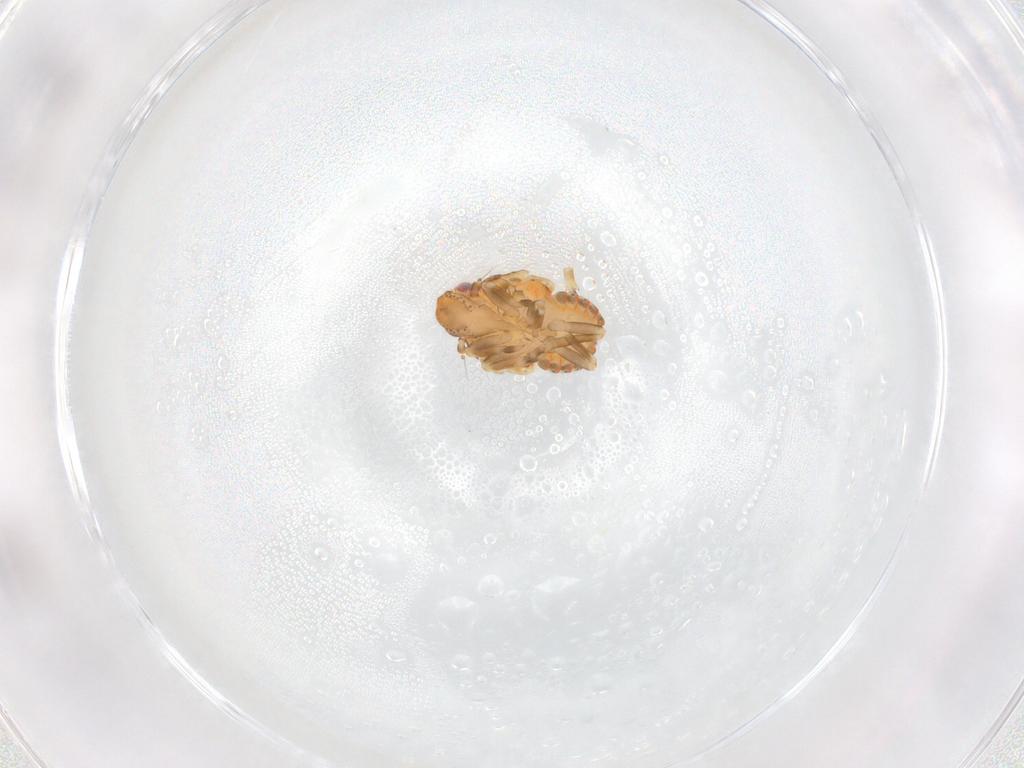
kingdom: Animalia
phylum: Arthropoda
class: Insecta
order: Hemiptera
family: Flatidae
